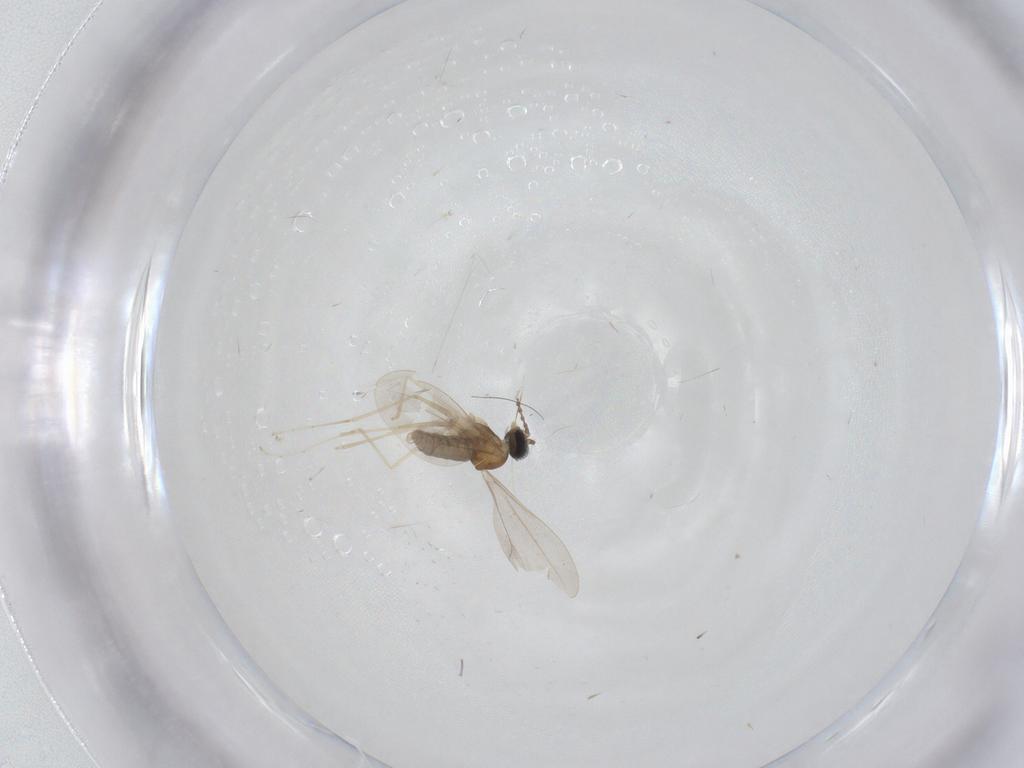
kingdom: Animalia
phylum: Arthropoda
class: Insecta
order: Diptera
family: Cecidomyiidae
